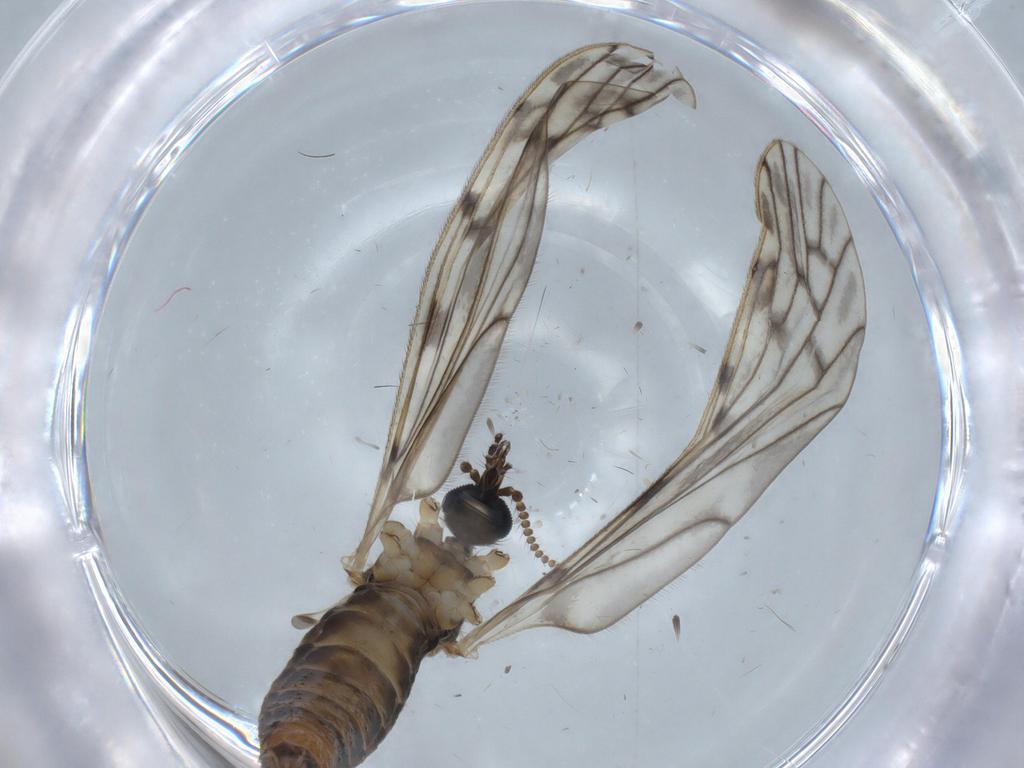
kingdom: Animalia
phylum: Arthropoda
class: Insecta
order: Diptera
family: Limoniidae
